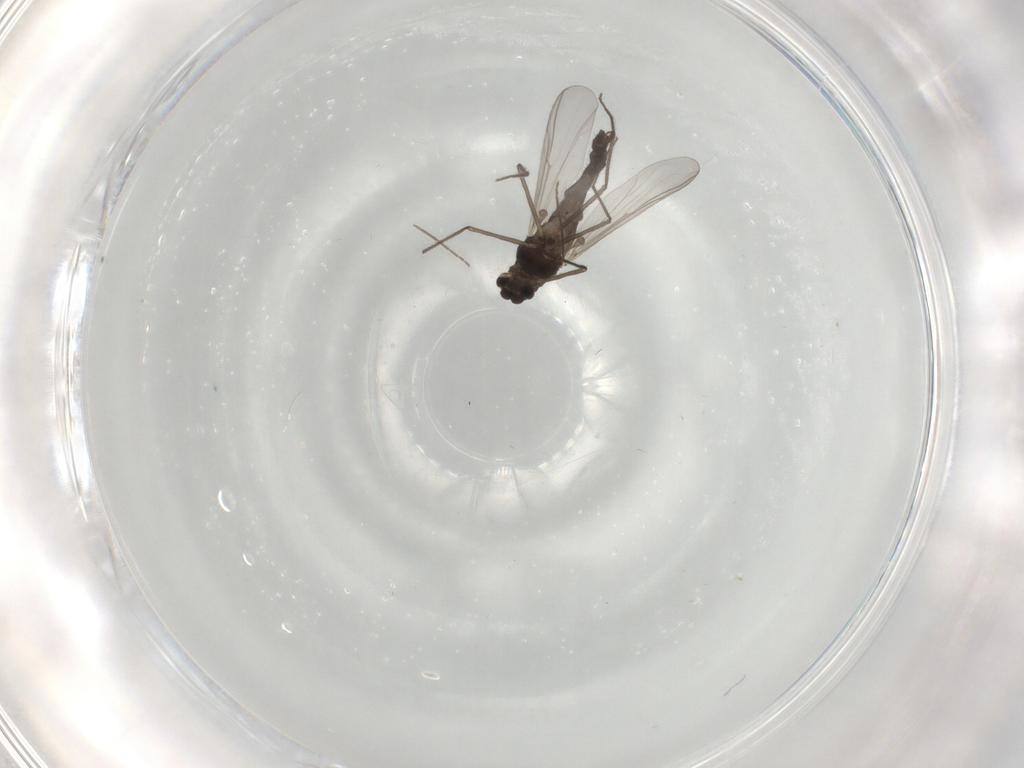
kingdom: Animalia
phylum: Arthropoda
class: Insecta
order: Diptera
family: Chironomidae
